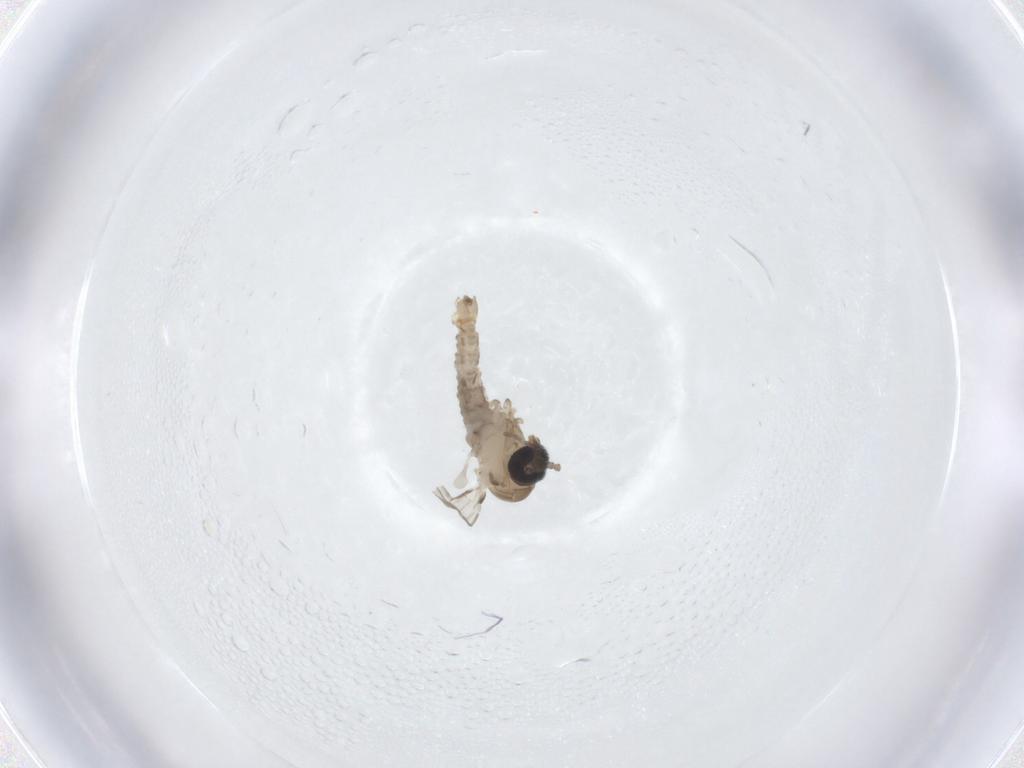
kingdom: Animalia
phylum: Arthropoda
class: Insecta
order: Diptera
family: Psychodidae
